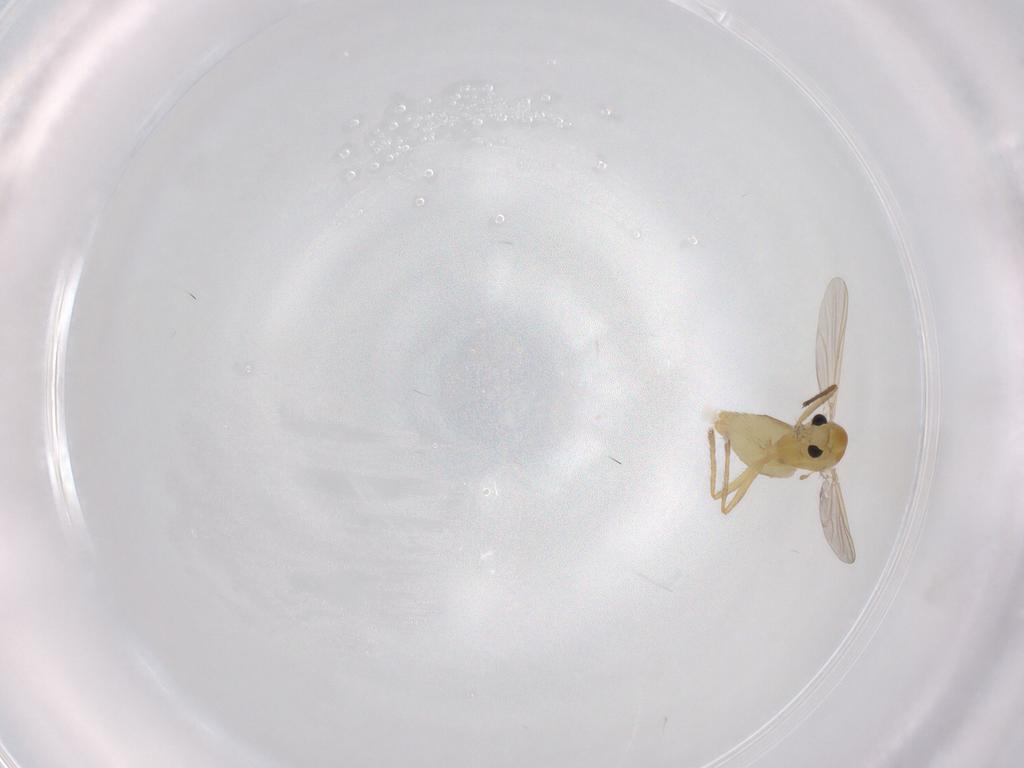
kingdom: Animalia
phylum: Arthropoda
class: Insecta
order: Diptera
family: Chironomidae
